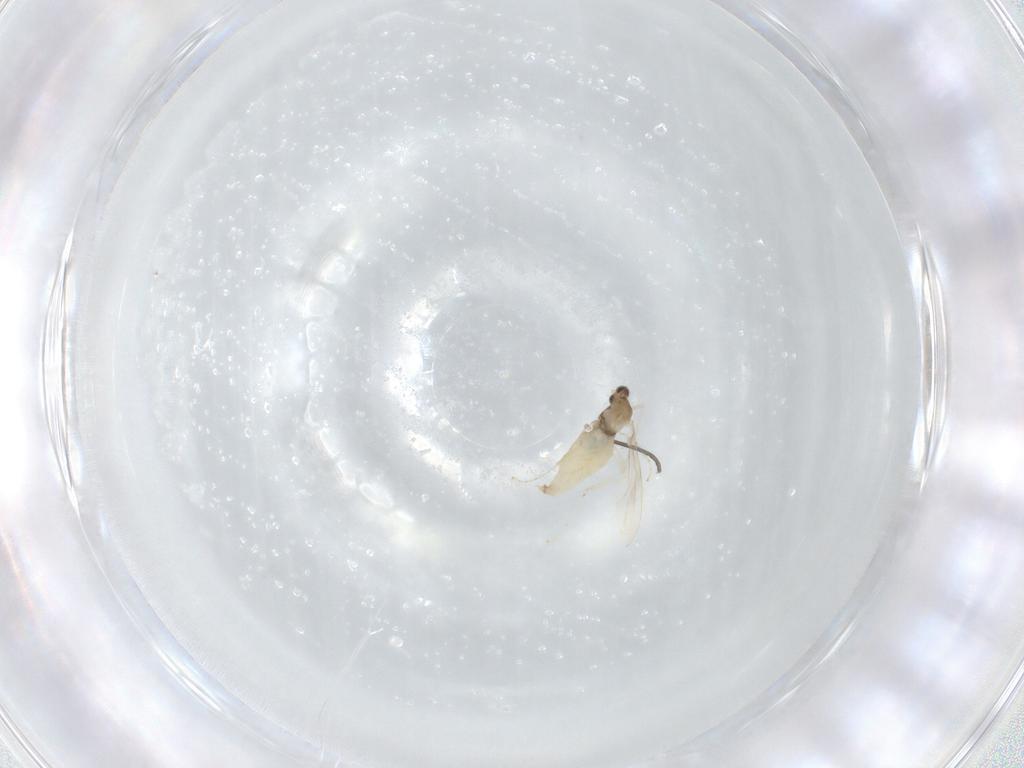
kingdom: Animalia
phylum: Arthropoda
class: Insecta
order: Diptera
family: Cecidomyiidae
